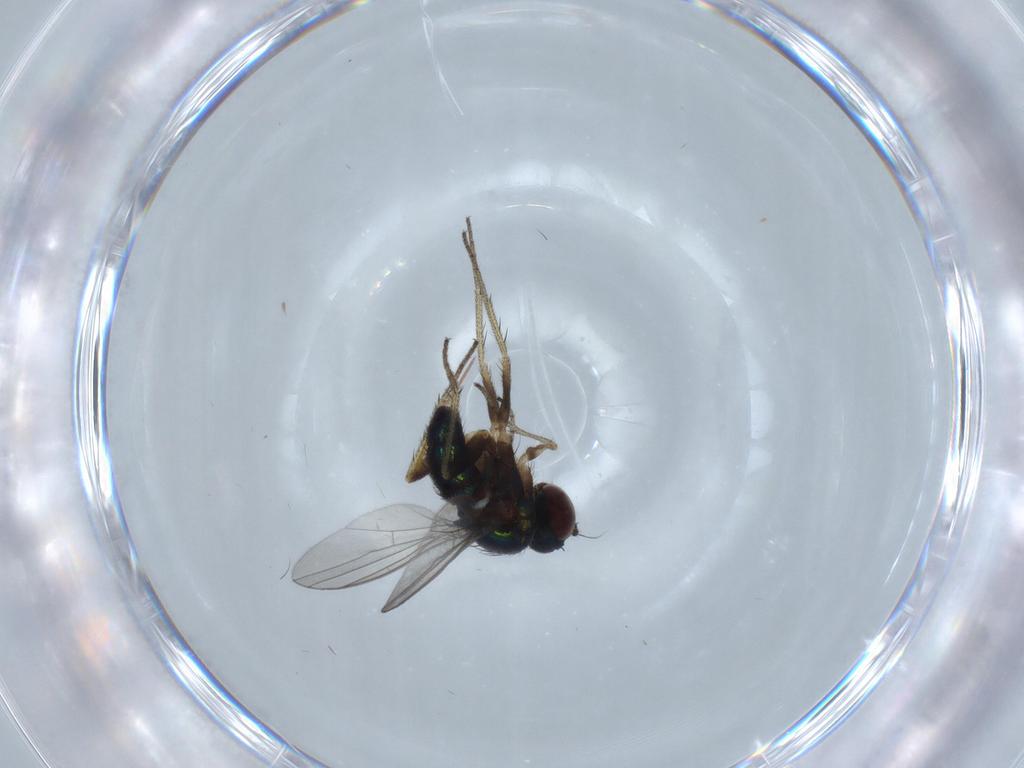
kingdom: Animalia
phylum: Arthropoda
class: Insecta
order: Diptera
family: Dolichopodidae
